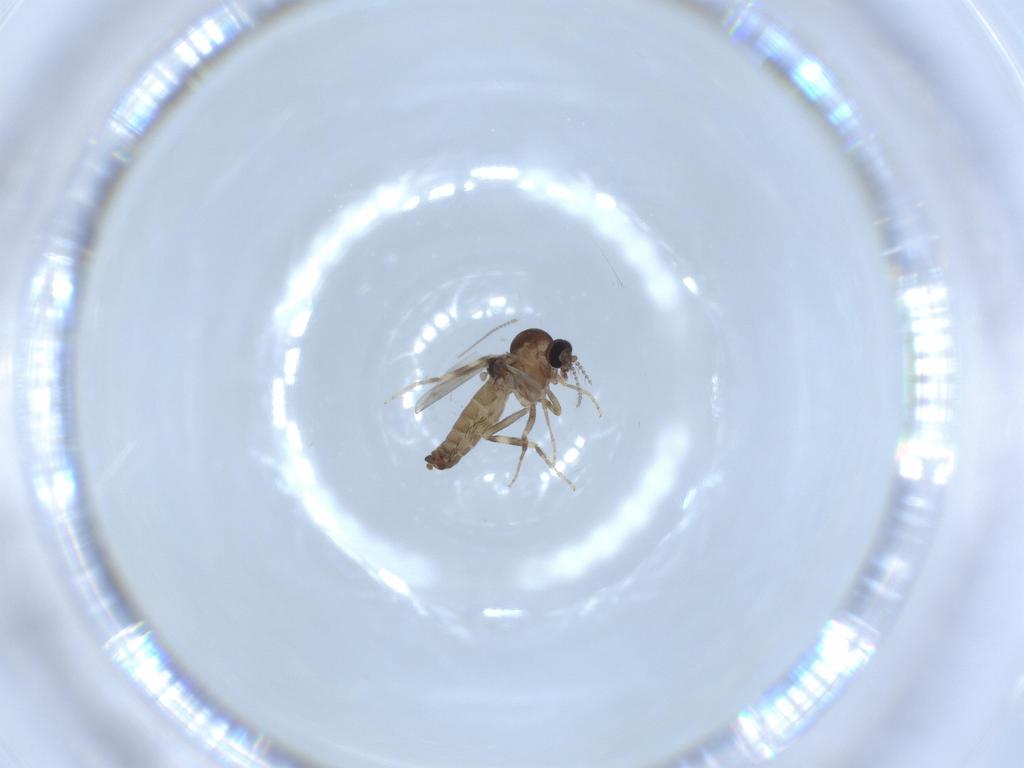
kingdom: Animalia
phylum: Arthropoda
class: Insecta
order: Diptera
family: Ceratopogonidae
